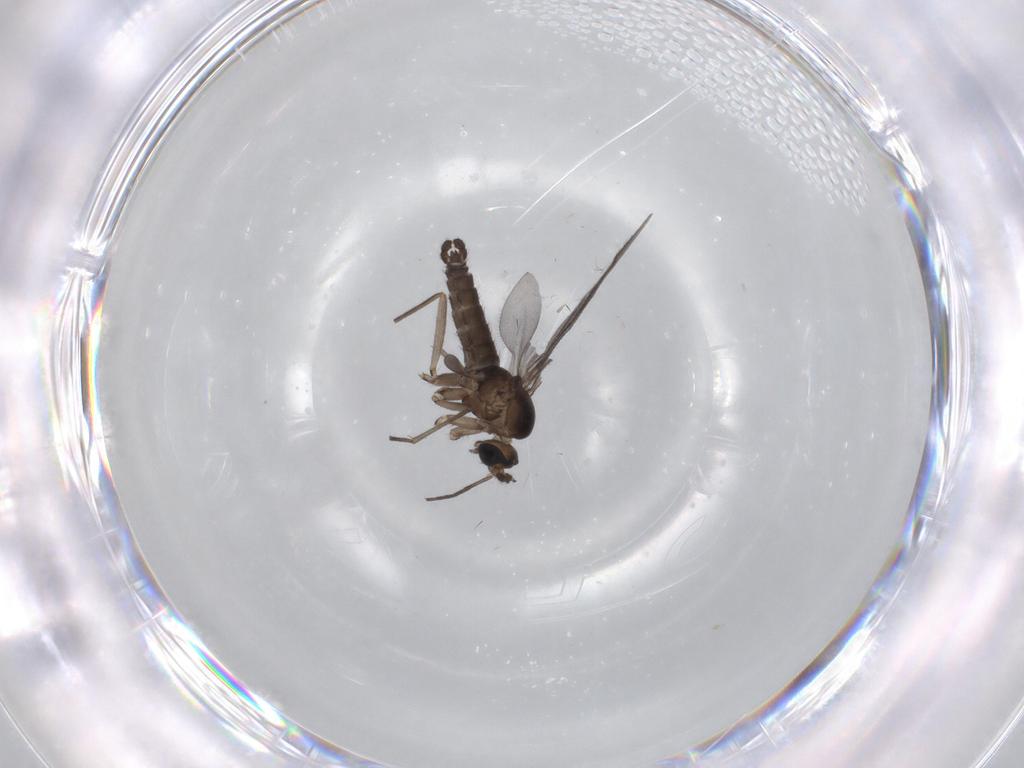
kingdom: Animalia
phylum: Arthropoda
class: Insecta
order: Diptera
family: Sciaridae
